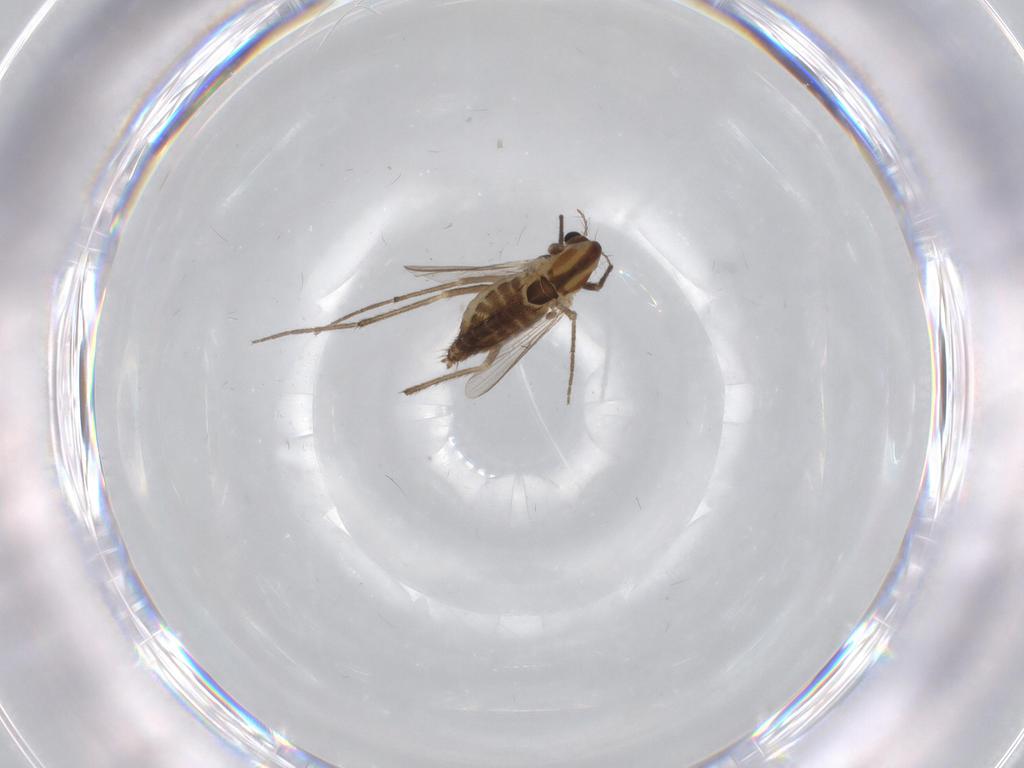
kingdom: Animalia
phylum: Arthropoda
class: Insecta
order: Diptera
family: Chironomidae
